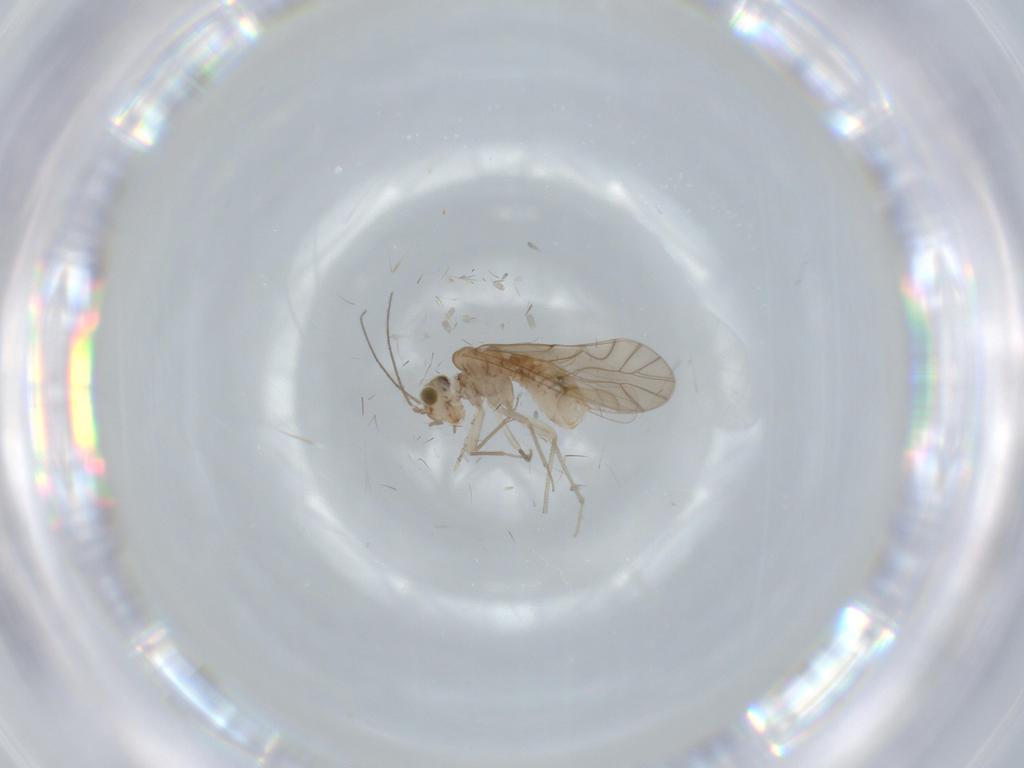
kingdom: Animalia
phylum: Arthropoda
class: Insecta
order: Psocodea
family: Lachesillidae
